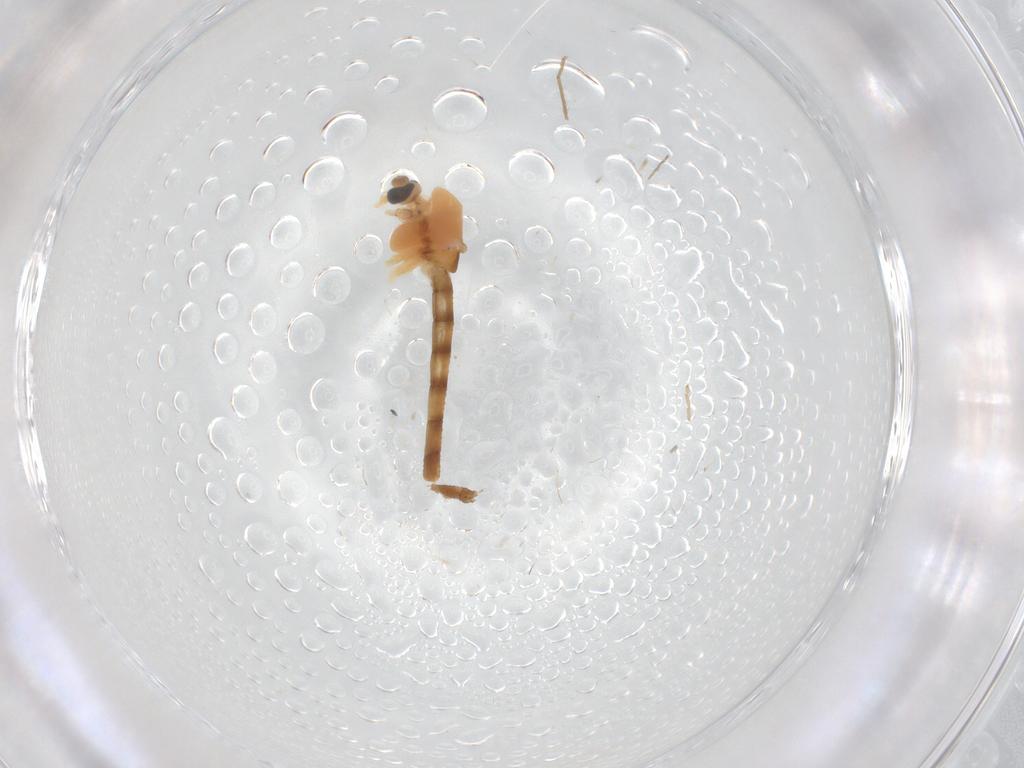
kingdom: Animalia
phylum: Arthropoda
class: Insecta
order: Diptera
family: Chironomidae
